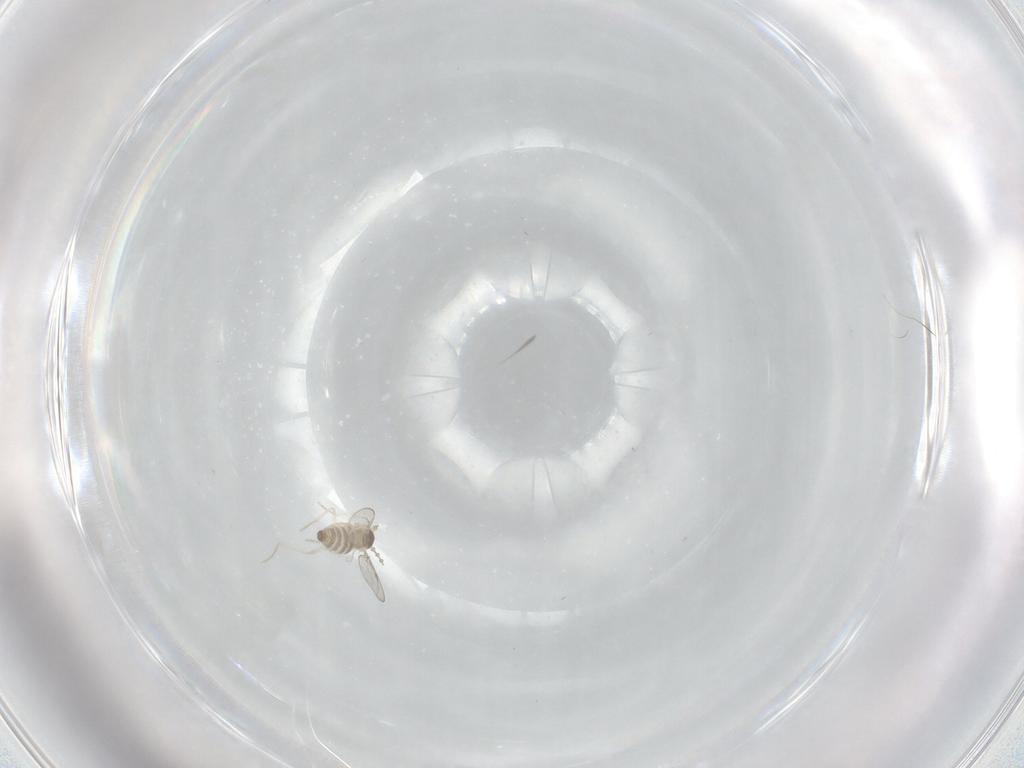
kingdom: Animalia
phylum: Arthropoda
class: Insecta
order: Diptera
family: Cecidomyiidae
